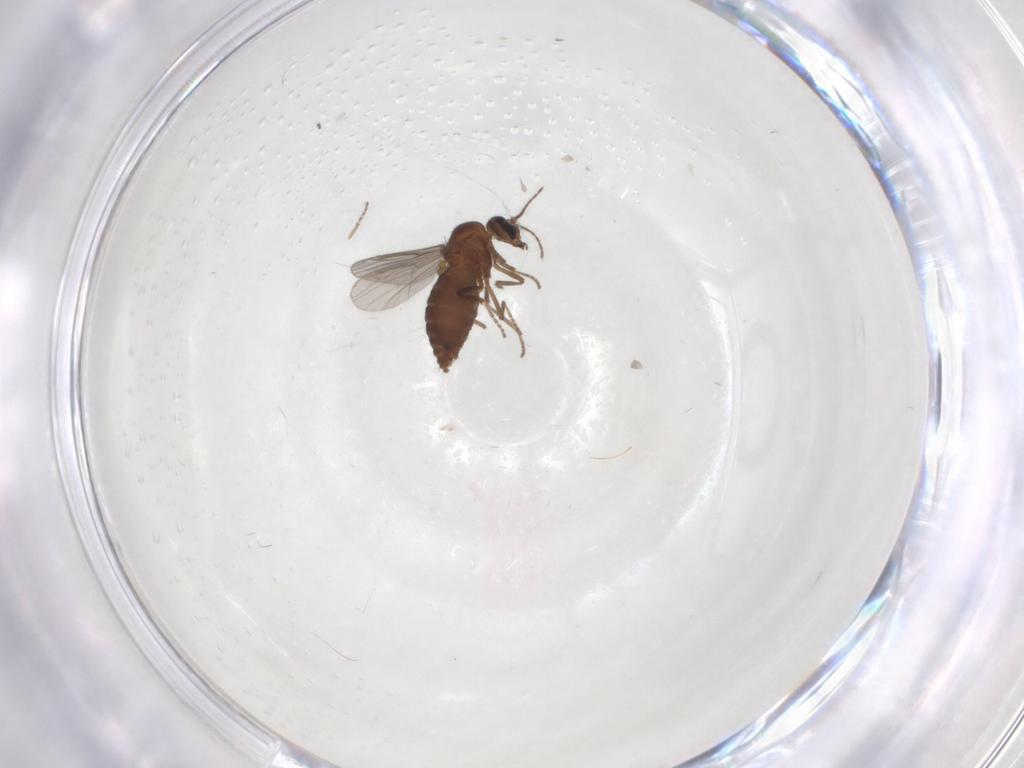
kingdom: Animalia
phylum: Arthropoda
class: Insecta
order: Diptera
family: Ceratopogonidae
